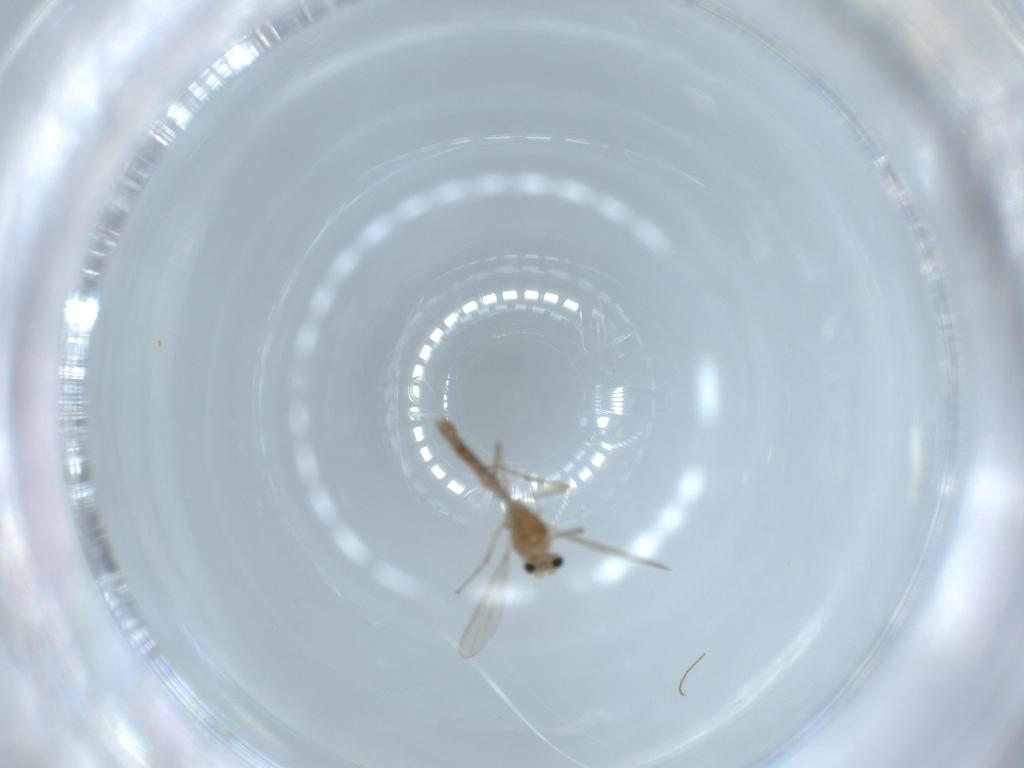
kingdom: Animalia
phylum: Arthropoda
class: Insecta
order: Diptera
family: Chironomidae
